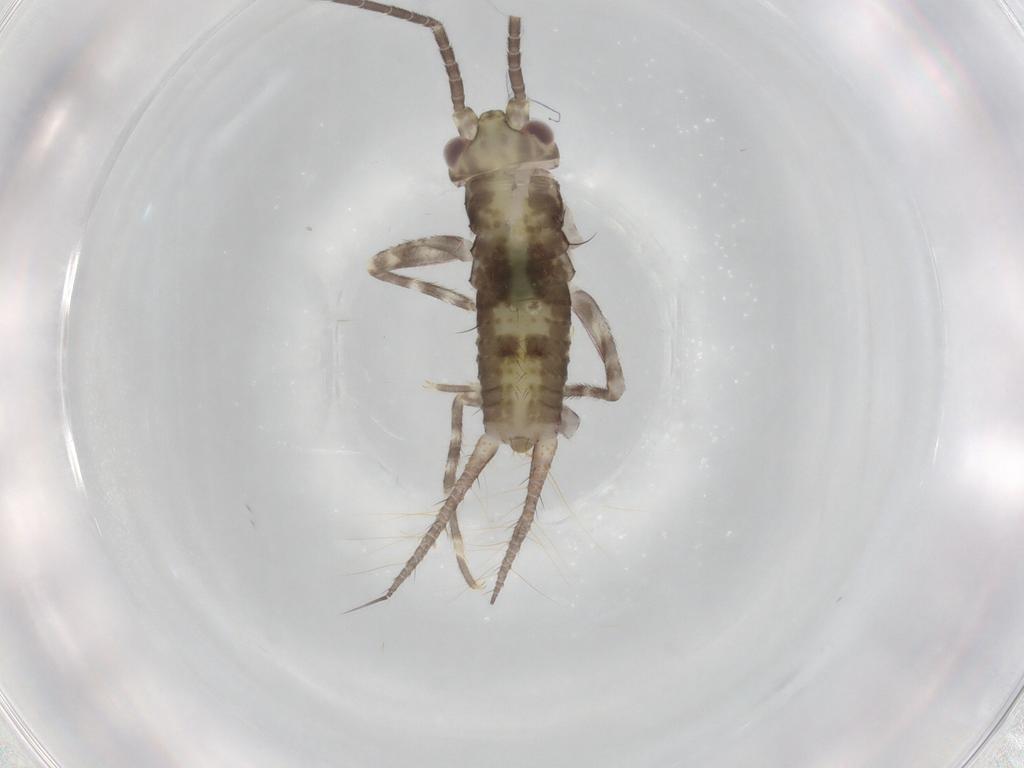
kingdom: Animalia
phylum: Arthropoda
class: Insecta
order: Orthoptera
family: Gryllidae
